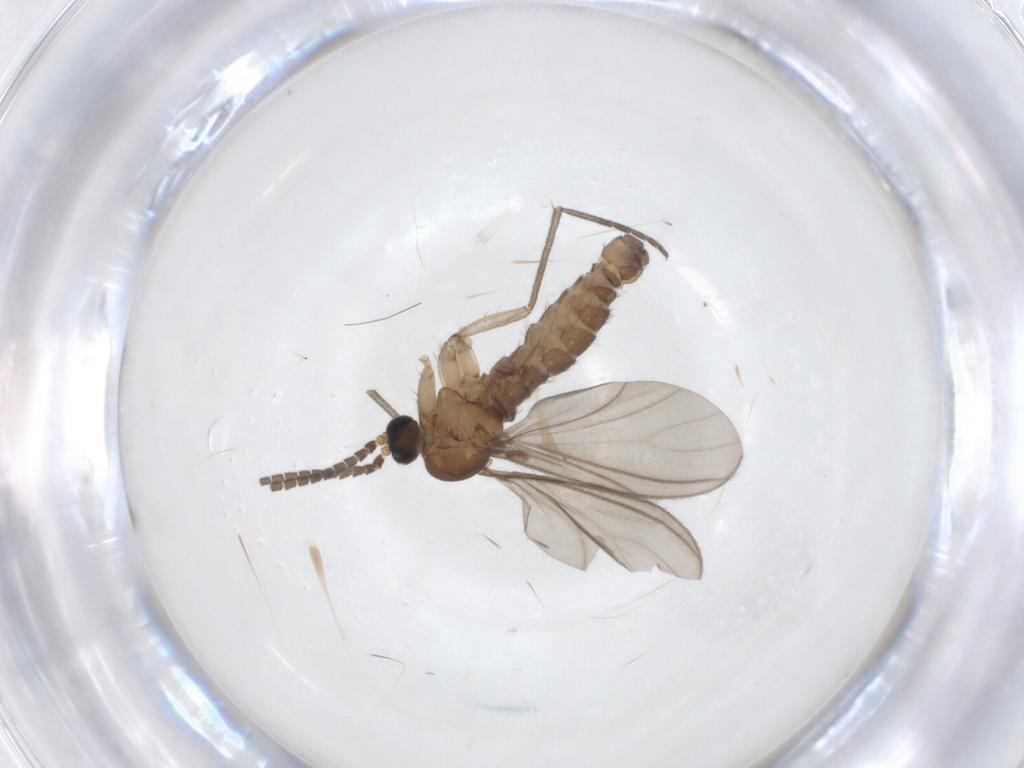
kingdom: Animalia
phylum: Arthropoda
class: Insecta
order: Diptera
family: Sciaridae
